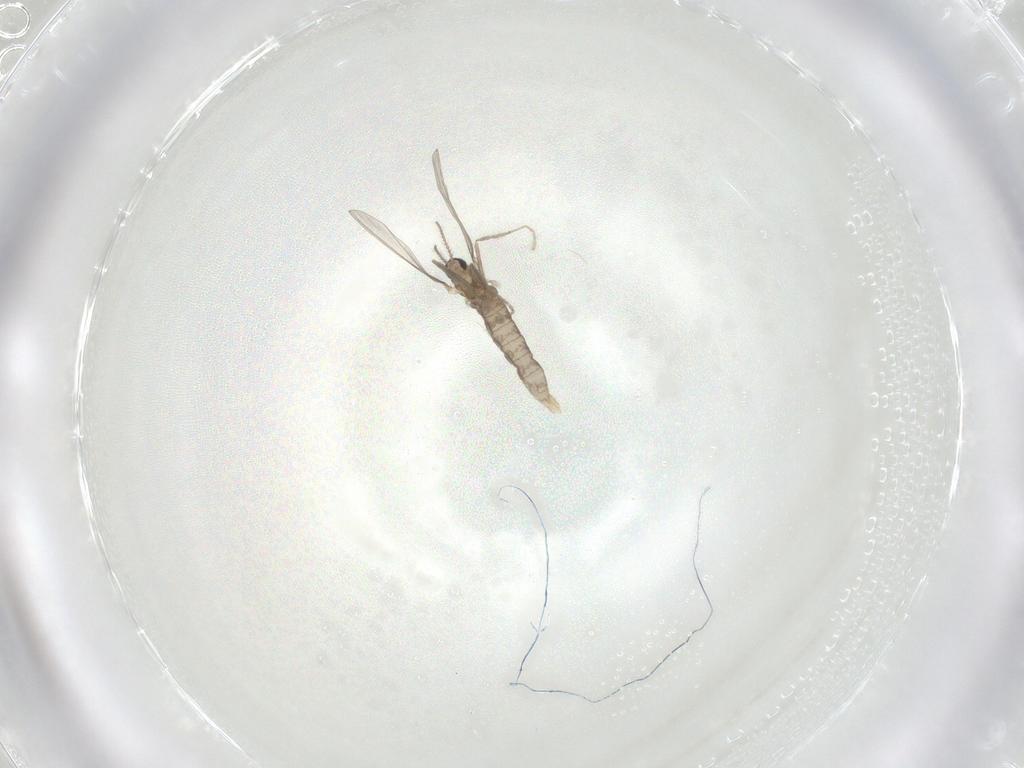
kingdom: Animalia
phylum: Arthropoda
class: Insecta
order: Diptera
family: Cecidomyiidae
